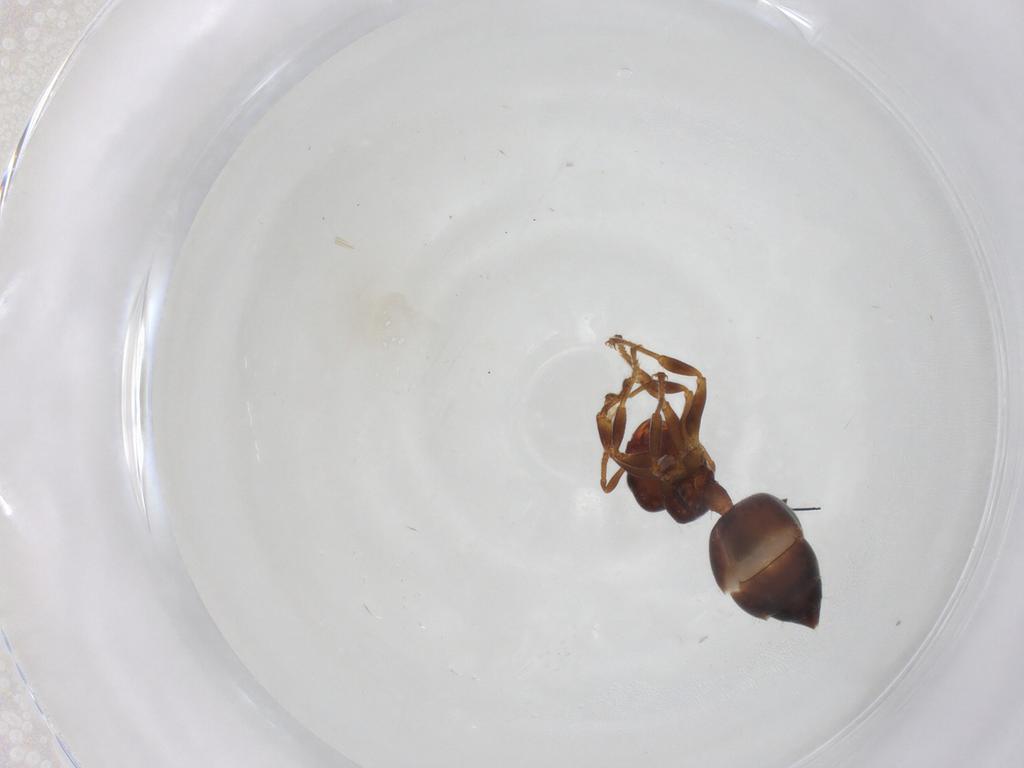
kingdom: Animalia
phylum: Arthropoda
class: Insecta
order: Hymenoptera
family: Formicidae
